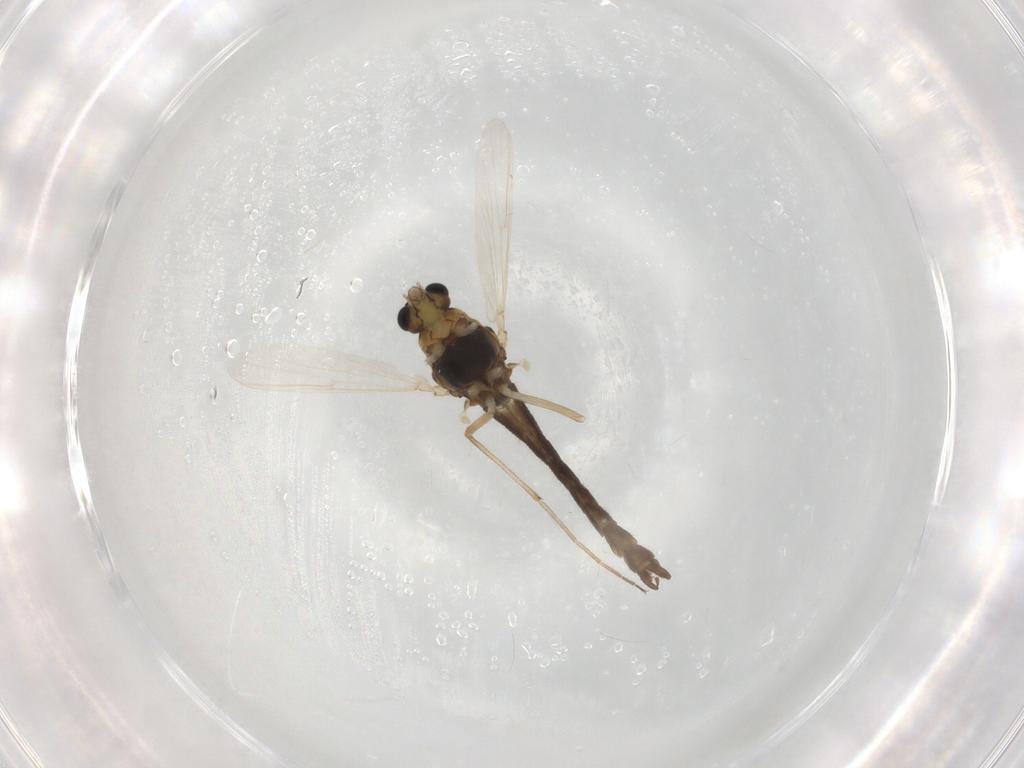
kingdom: Animalia
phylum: Arthropoda
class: Insecta
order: Diptera
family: Chironomidae
